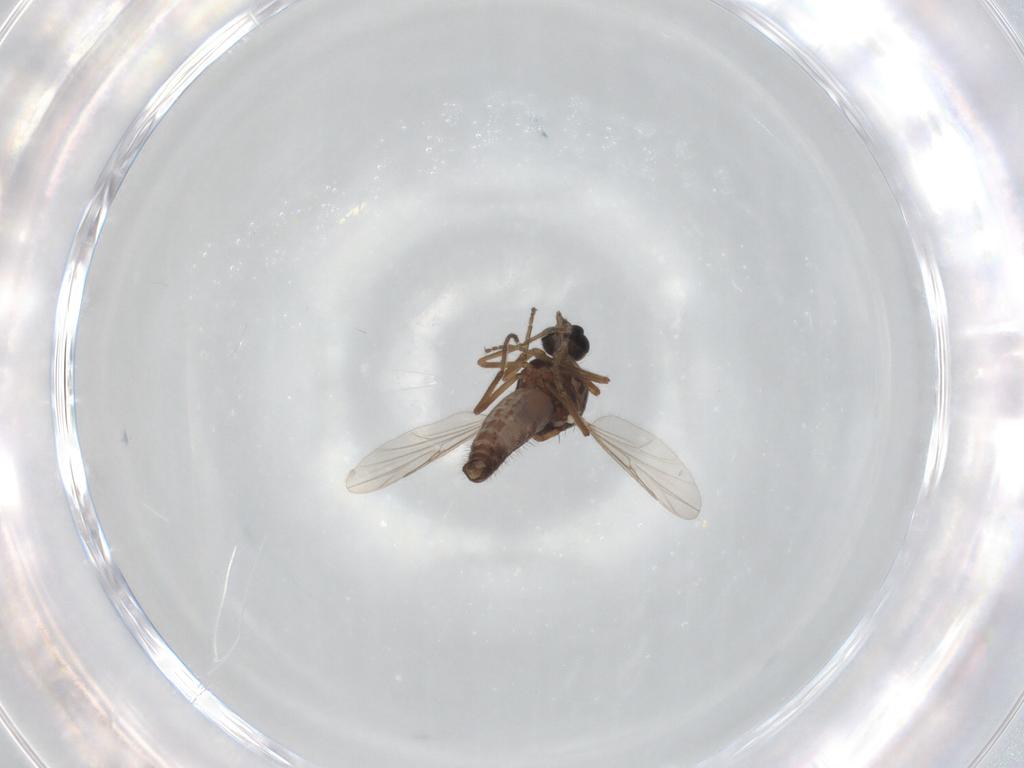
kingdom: Animalia
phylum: Arthropoda
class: Insecta
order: Diptera
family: Ceratopogonidae
